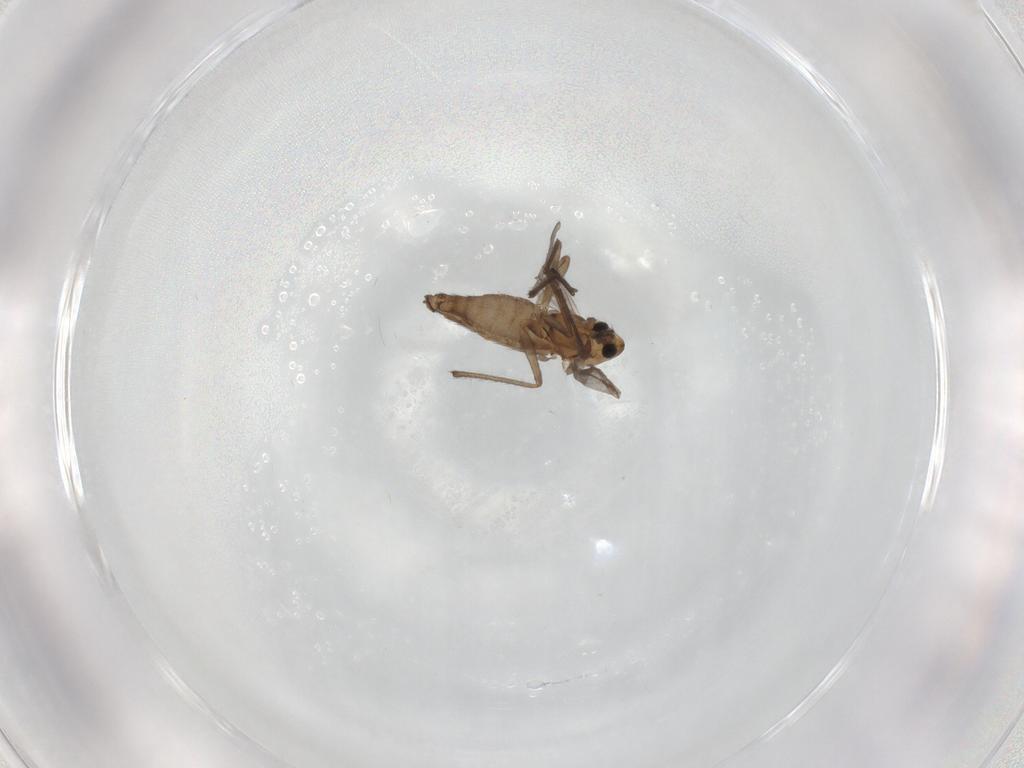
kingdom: Animalia
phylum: Arthropoda
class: Insecta
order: Diptera
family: Chironomidae
